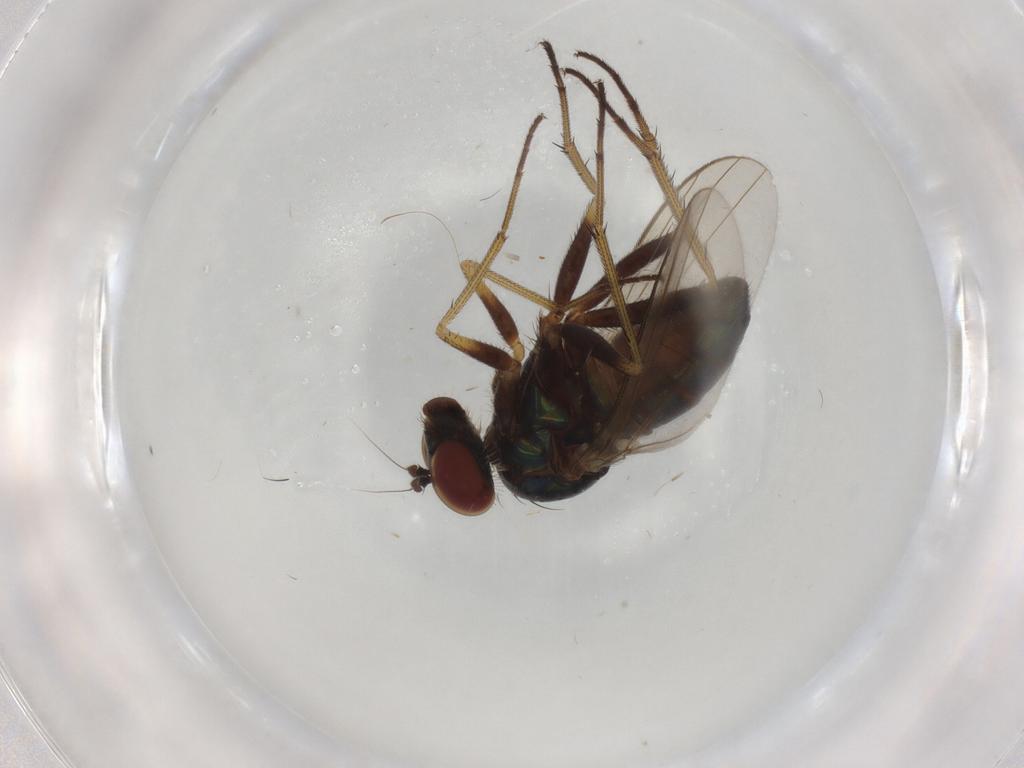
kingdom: Animalia
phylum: Arthropoda
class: Insecta
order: Diptera
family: Dolichopodidae
